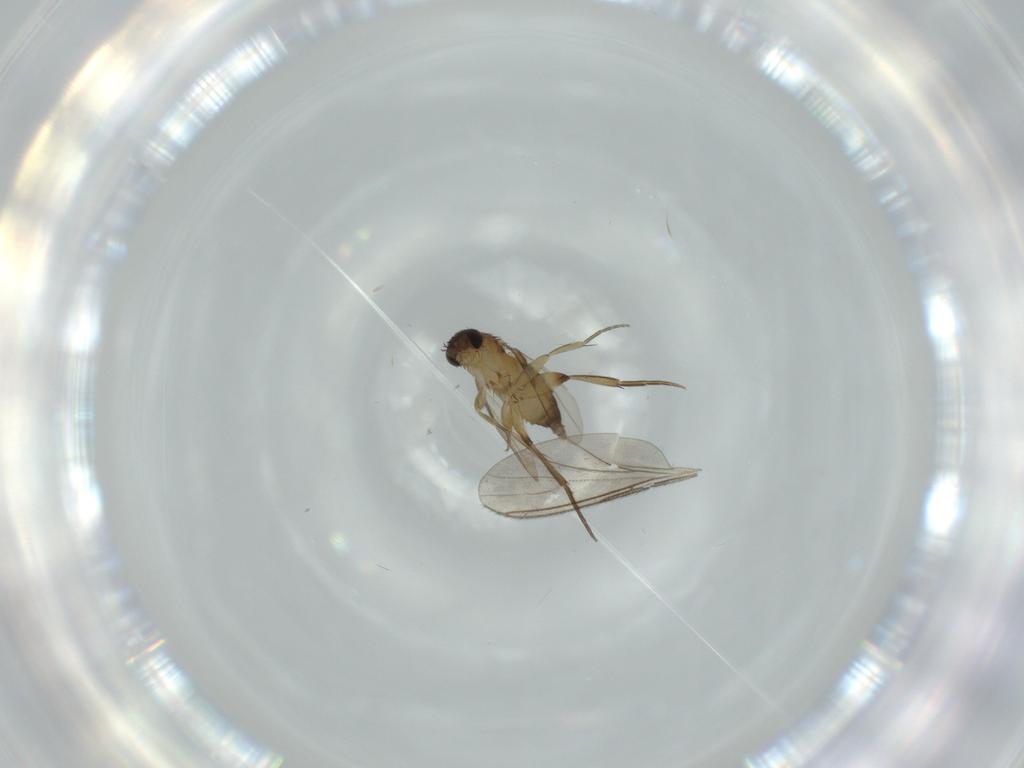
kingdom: Animalia
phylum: Arthropoda
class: Insecta
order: Diptera
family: Phoridae
